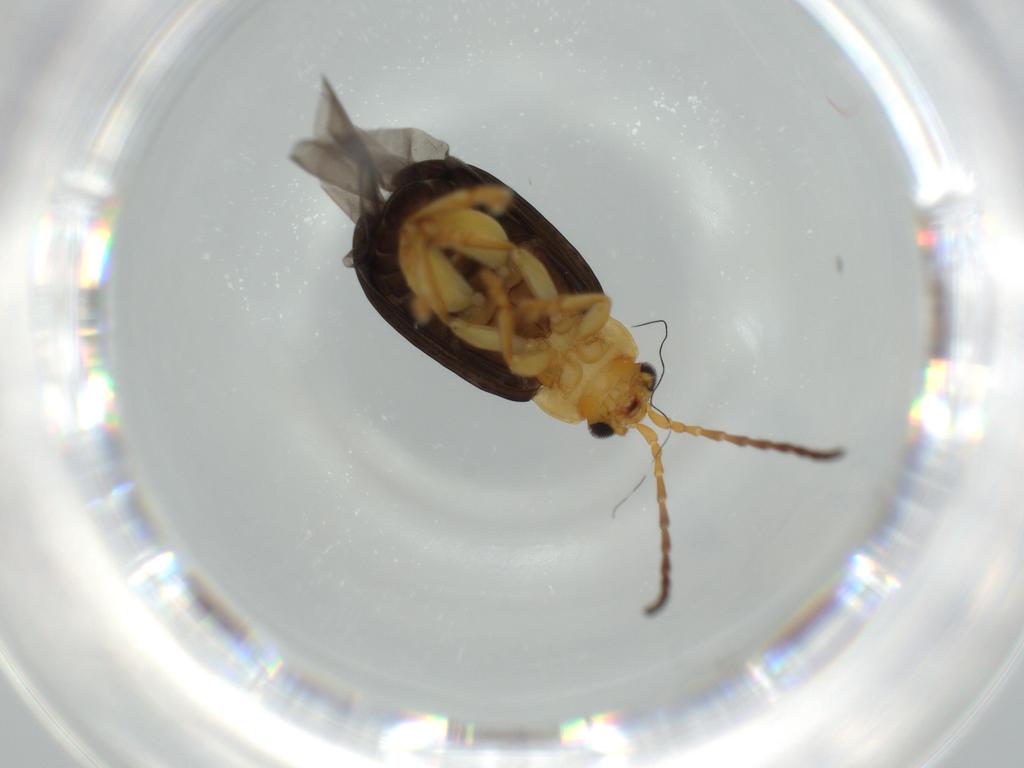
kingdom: Animalia
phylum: Arthropoda
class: Insecta
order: Coleoptera
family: Chrysomelidae
